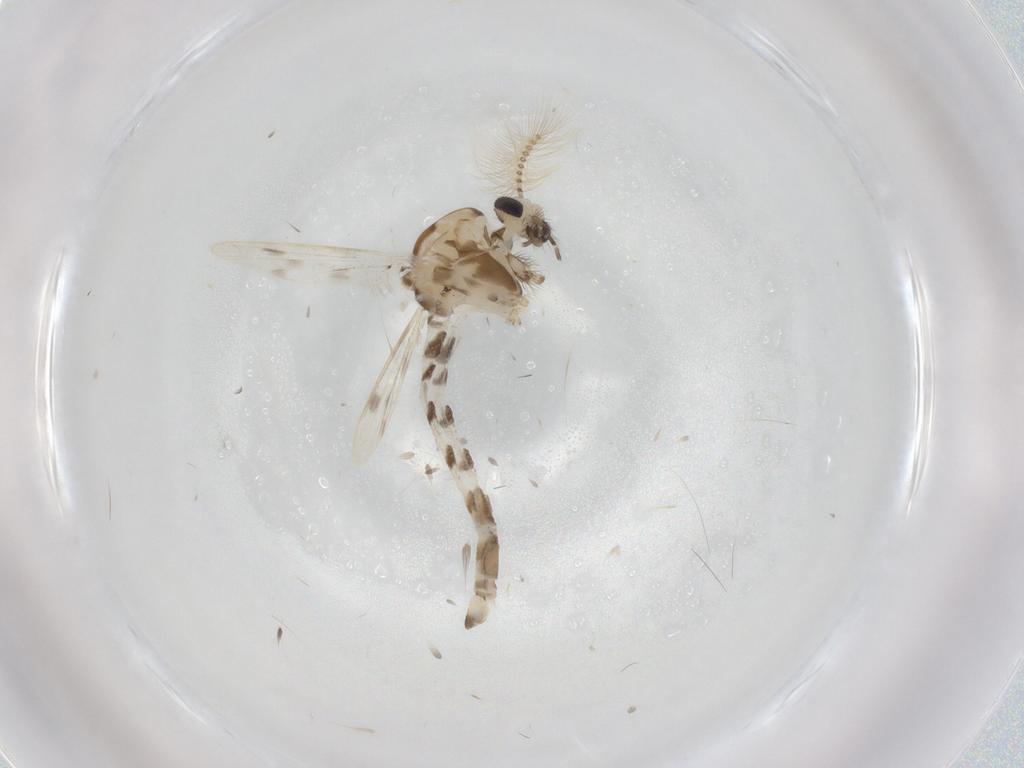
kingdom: Animalia
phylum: Arthropoda
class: Insecta
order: Diptera
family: Corethrellidae
